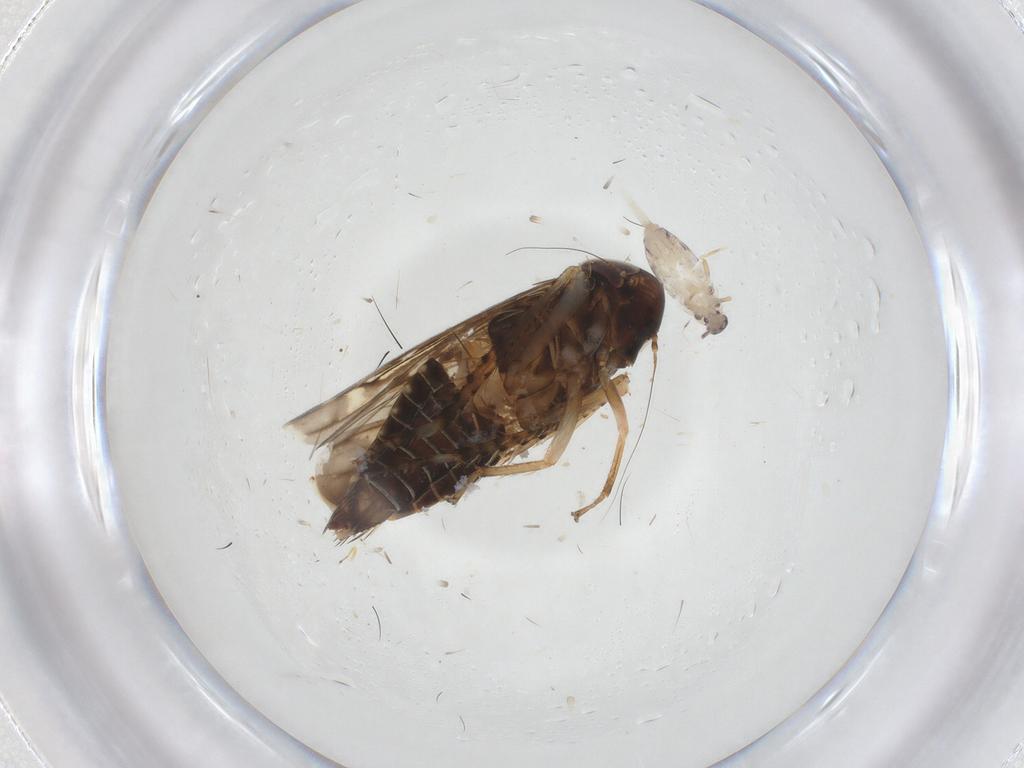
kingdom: Animalia
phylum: Arthropoda
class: Insecta
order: Hemiptera
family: Cicadellidae
